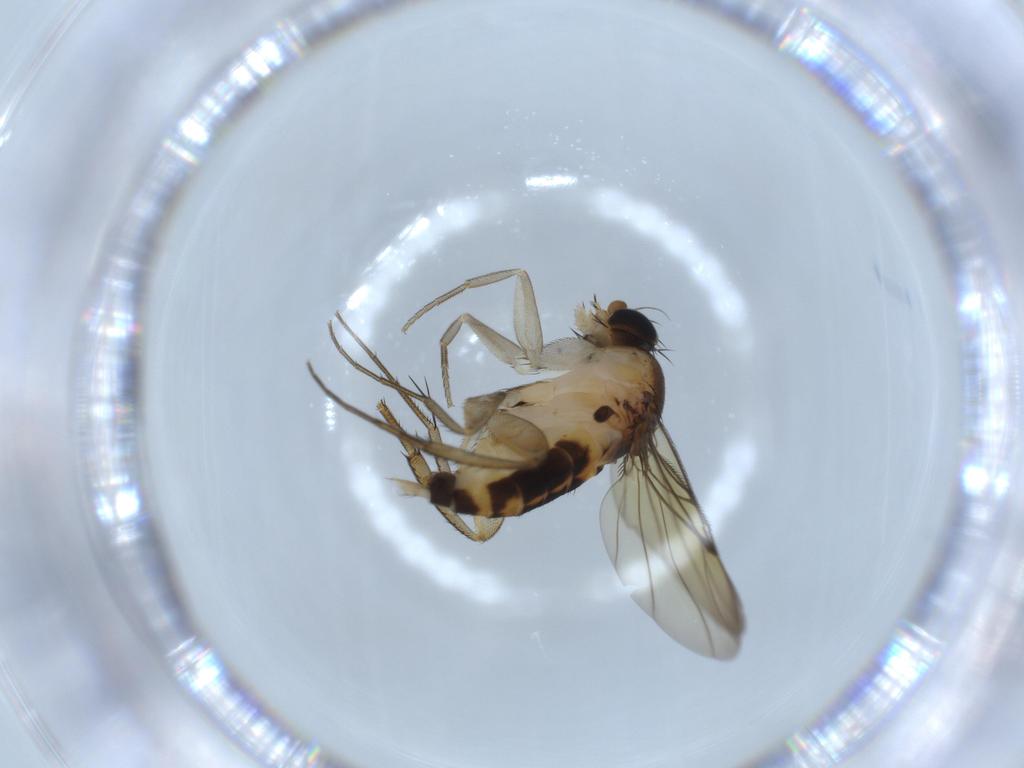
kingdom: Animalia
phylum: Arthropoda
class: Insecta
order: Diptera
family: Phoridae
